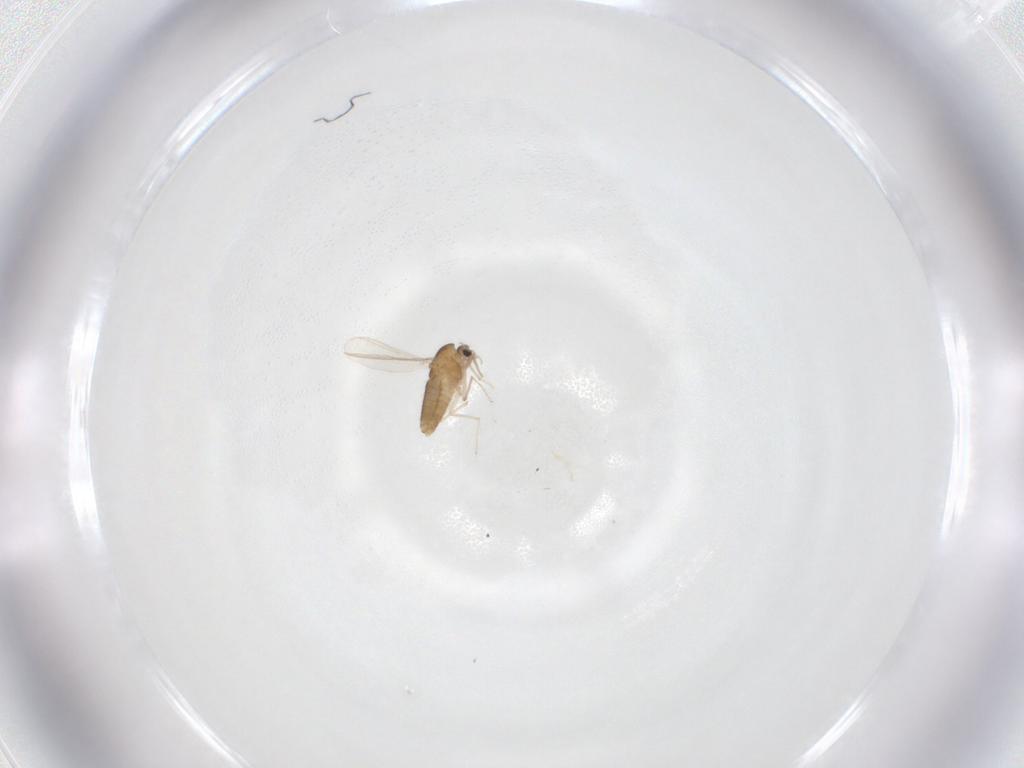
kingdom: Animalia
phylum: Arthropoda
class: Insecta
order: Diptera
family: Chironomidae
